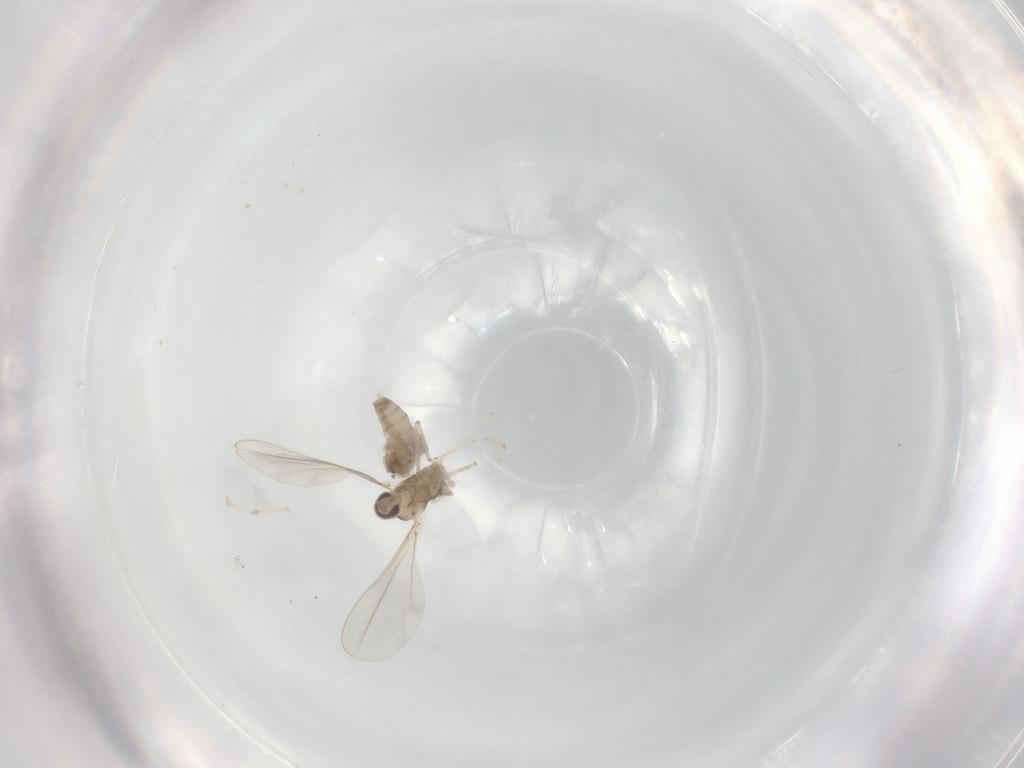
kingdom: Animalia
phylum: Arthropoda
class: Insecta
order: Diptera
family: Cecidomyiidae
